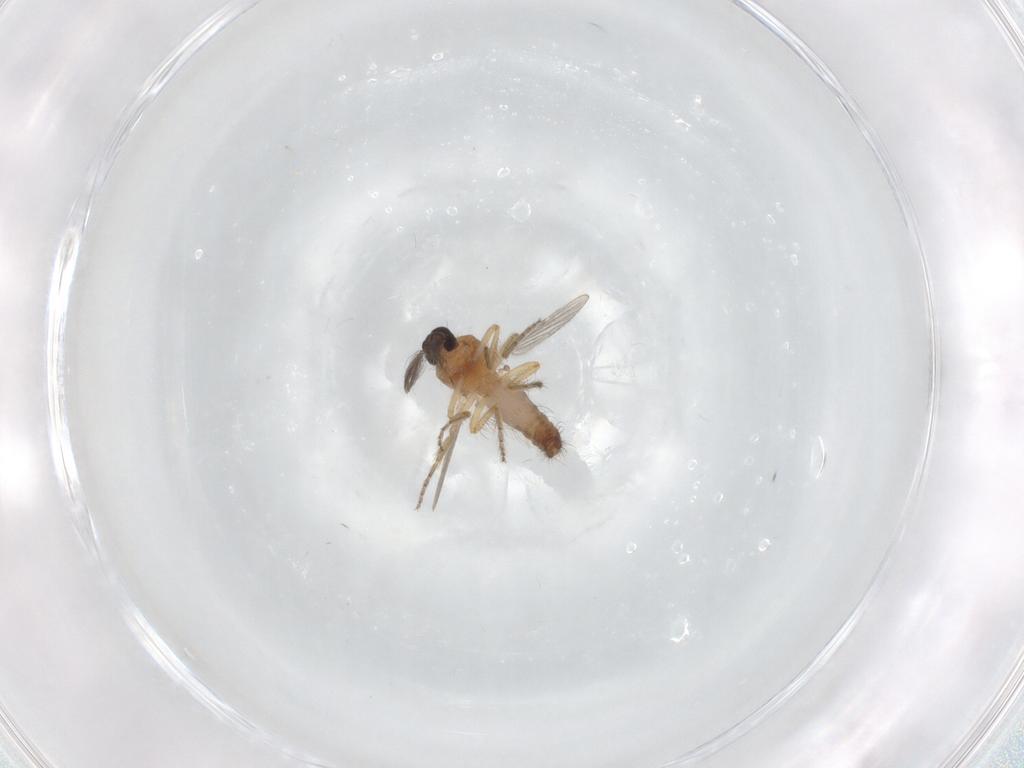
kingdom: Animalia
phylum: Arthropoda
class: Insecta
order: Diptera
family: Ceratopogonidae
